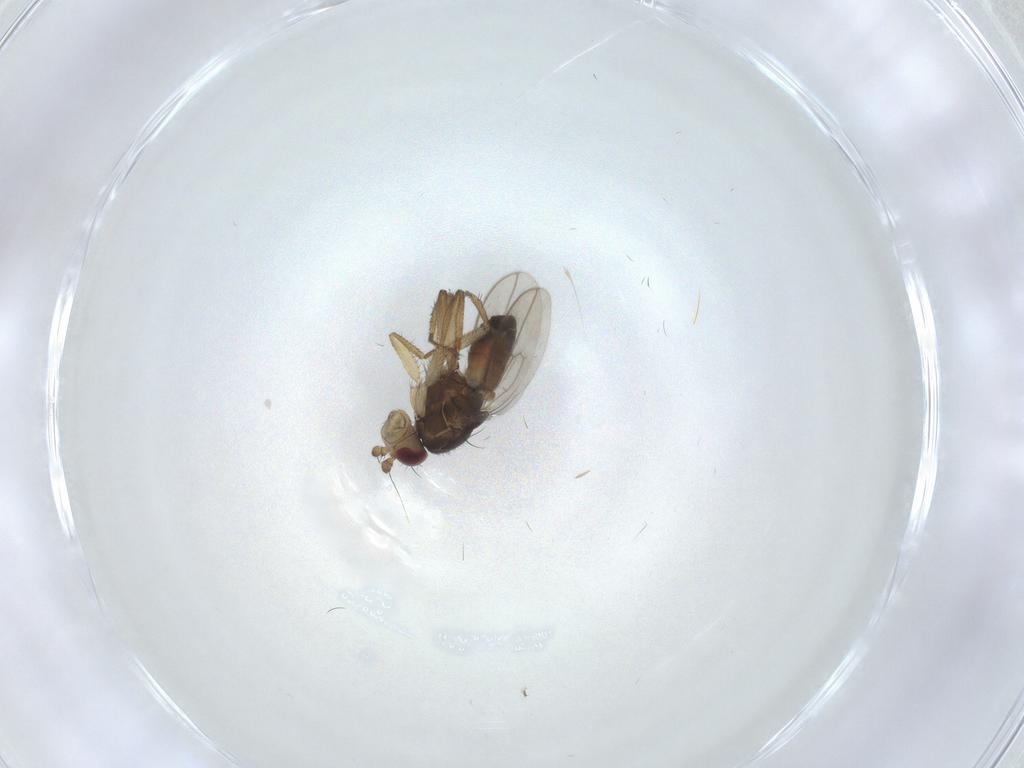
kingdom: Animalia
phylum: Arthropoda
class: Insecta
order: Diptera
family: Sphaeroceridae
